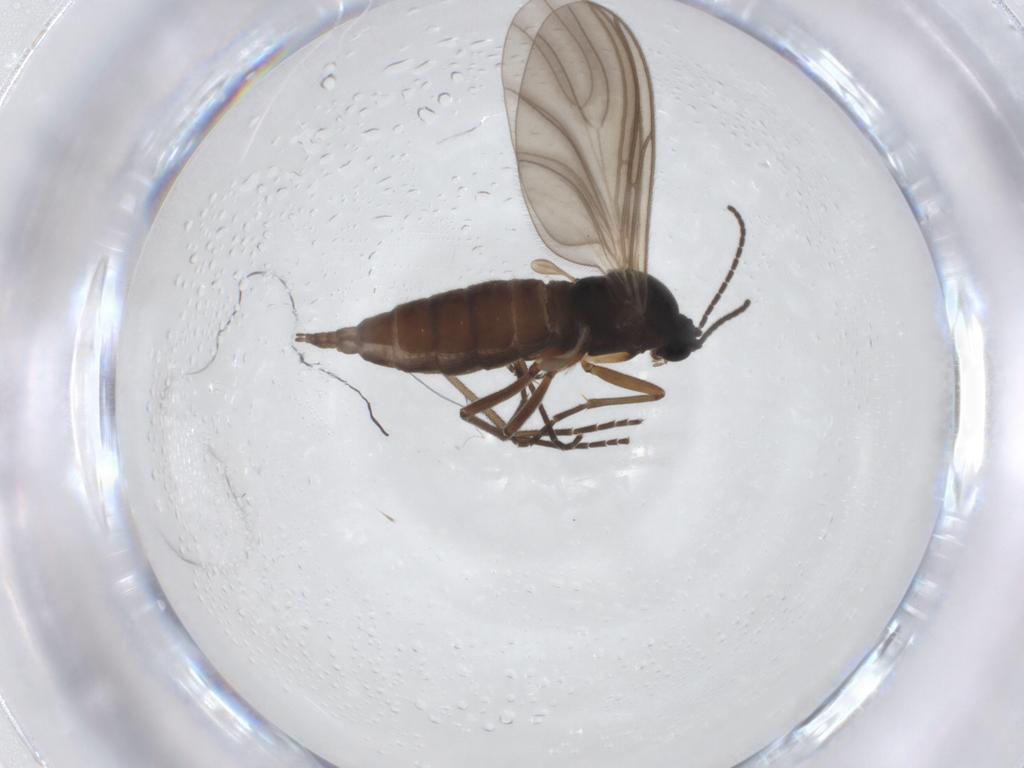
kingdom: Animalia
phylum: Arthropoda
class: Insecta
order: Diptera
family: Sciaridae
